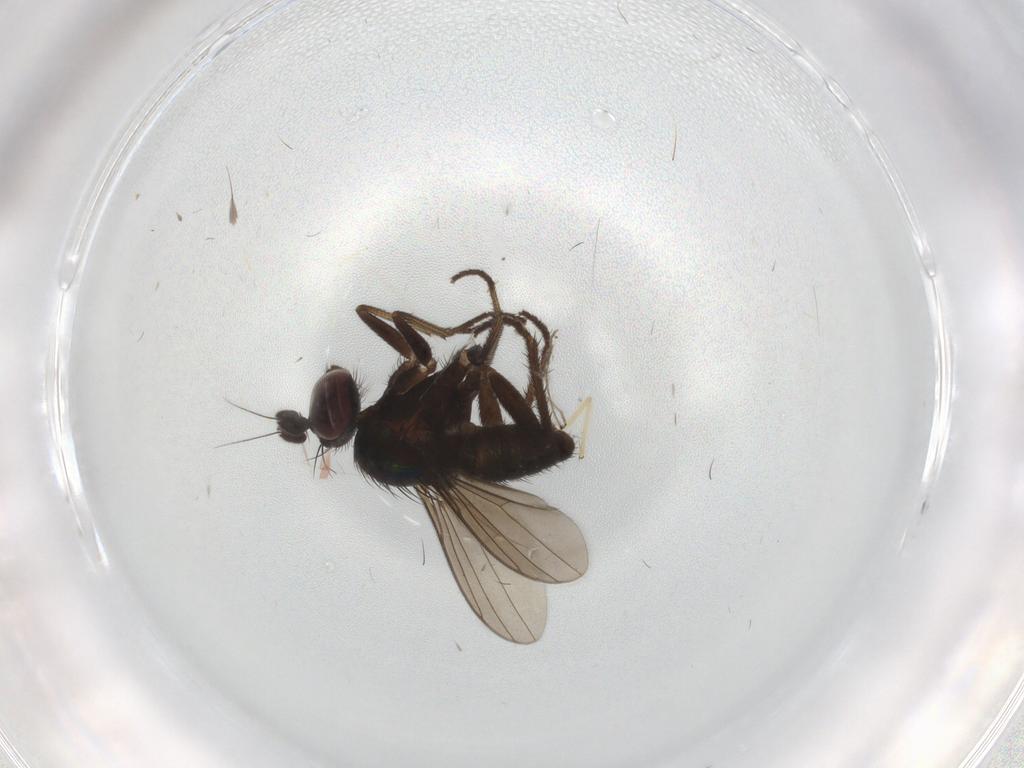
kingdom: Animalia
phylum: Arthropoda
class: Insecta
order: Diptera
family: Dolichopodidae
